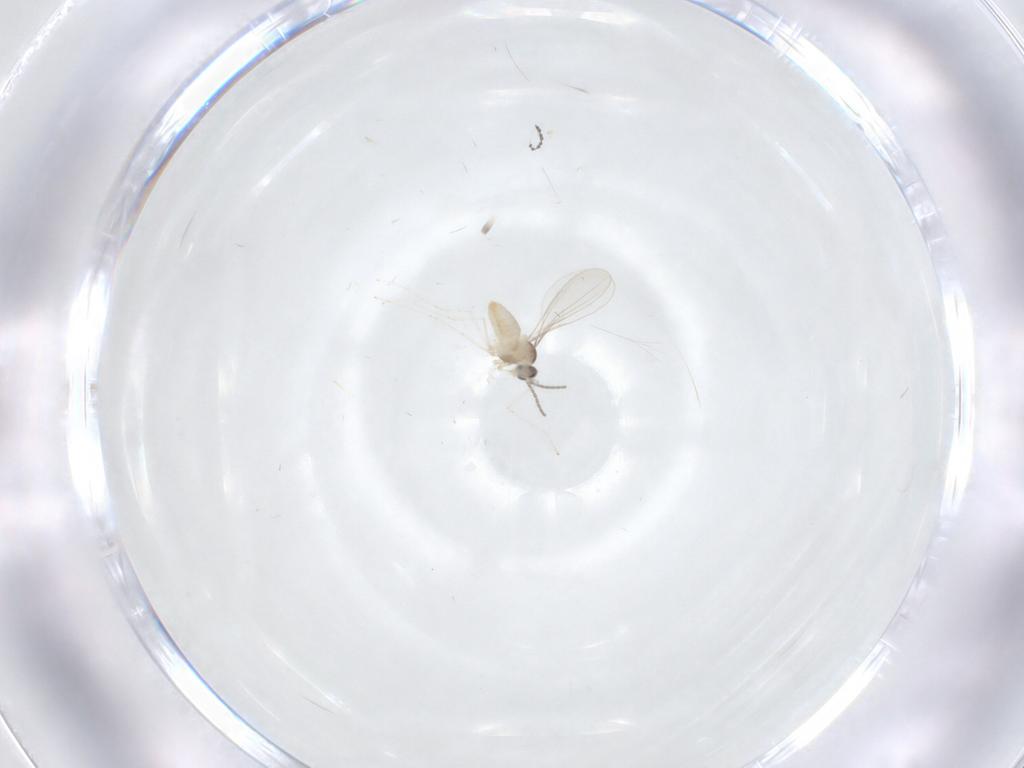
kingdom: Animalia
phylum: Arthropoda
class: Insecta
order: Diptera
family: Cecidomyiidae
